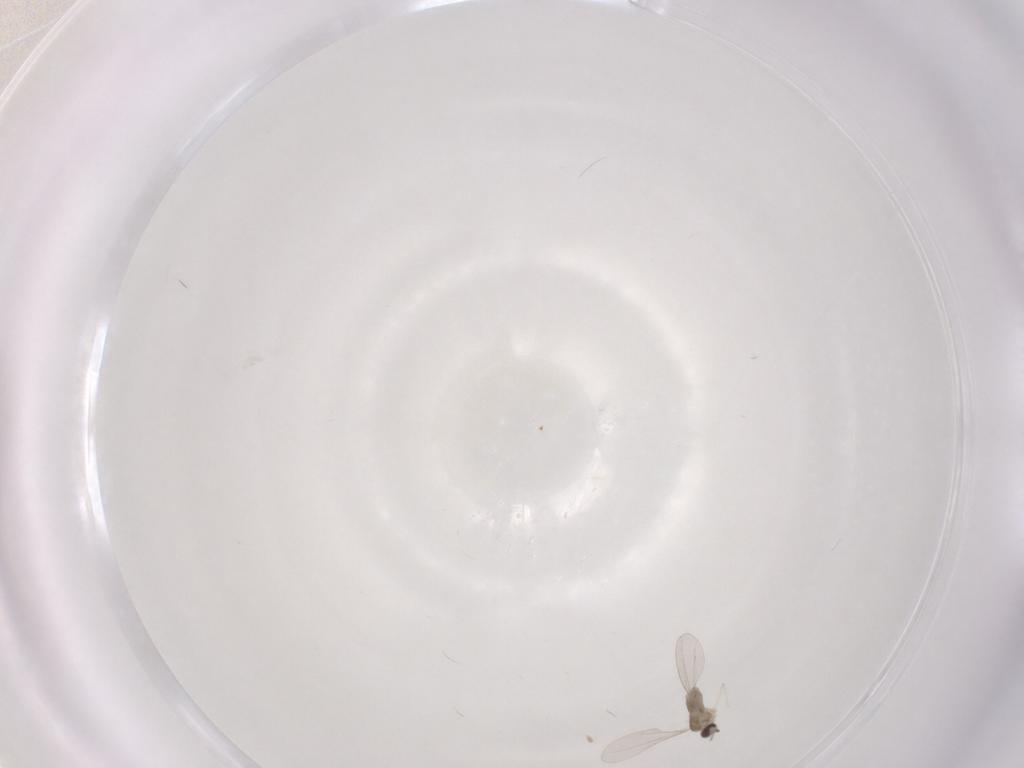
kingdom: Animalia
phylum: Arthropoda
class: Insecta
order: Diptera
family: Cecidomyiidae
